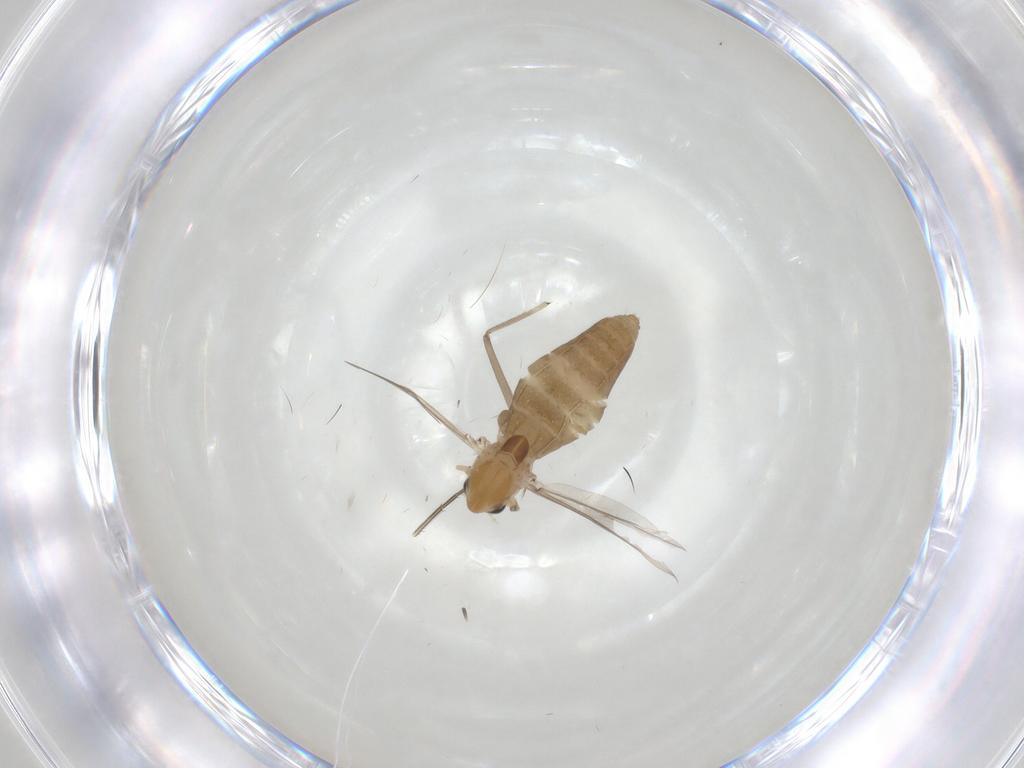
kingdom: Animalia
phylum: Arthropoda
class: Insecta
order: Diptera
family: Chironomidae
